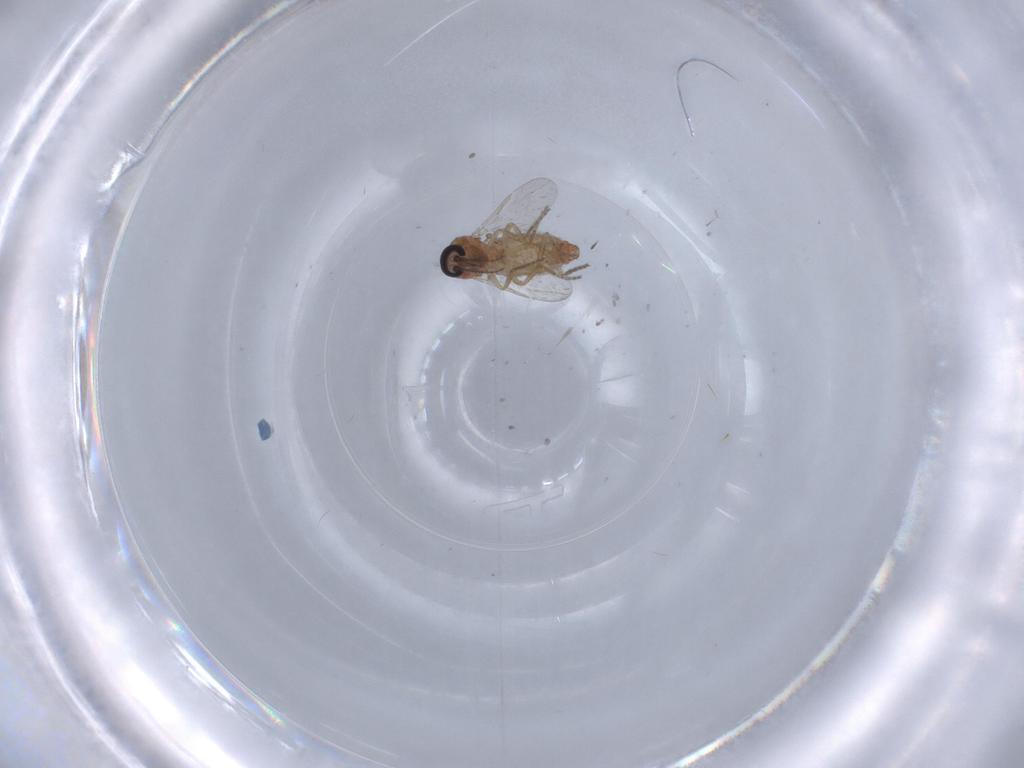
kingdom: Animalia
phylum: Arthropoda
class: Insecta
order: Diptera
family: Ceratopogonidae
